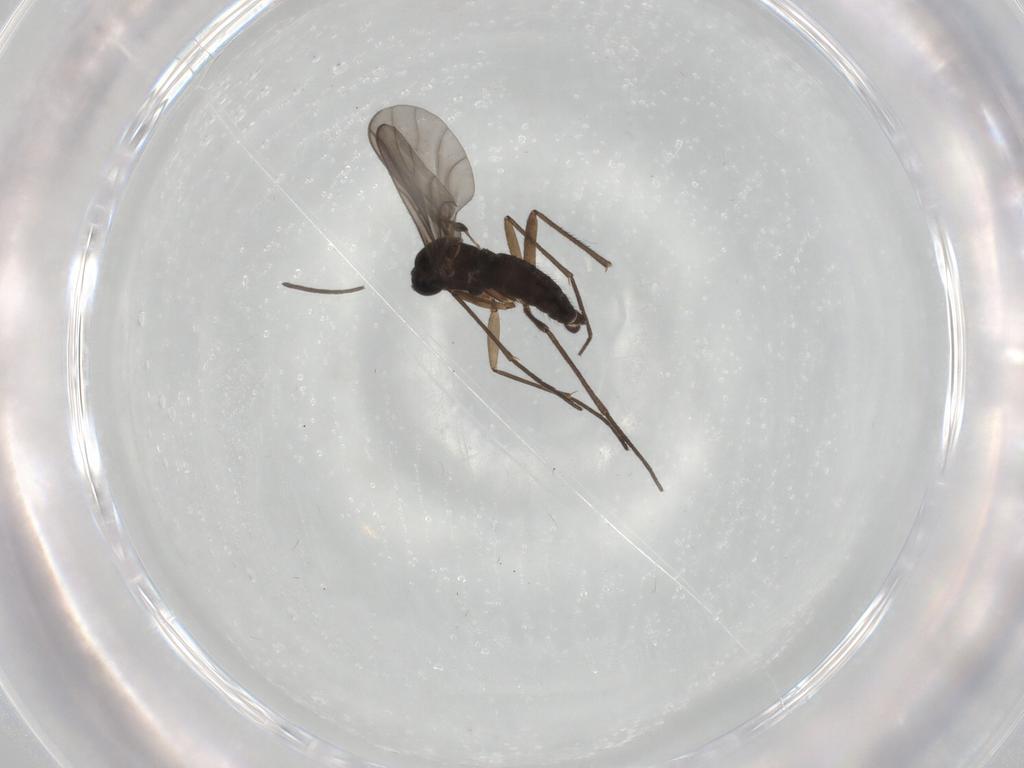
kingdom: Animalia
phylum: Arthropoda
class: Insecta
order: Diptera
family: Sciaridae
